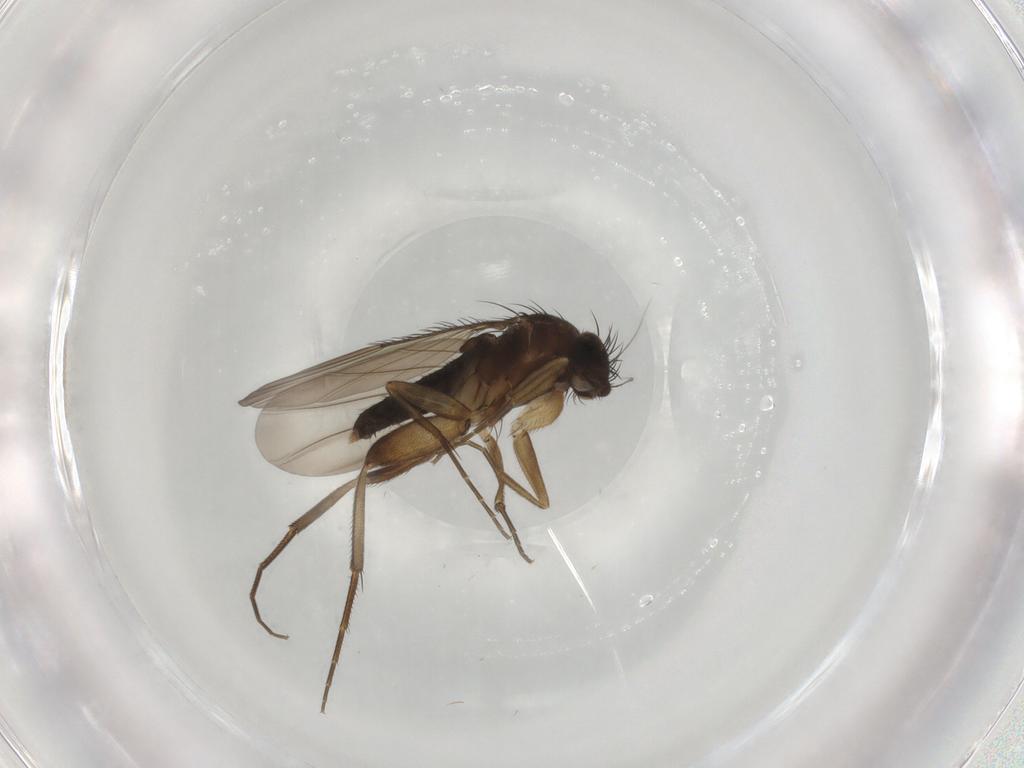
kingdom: Animalia
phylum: Arthropoda
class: Insecta
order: Diptera
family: Phoridae
